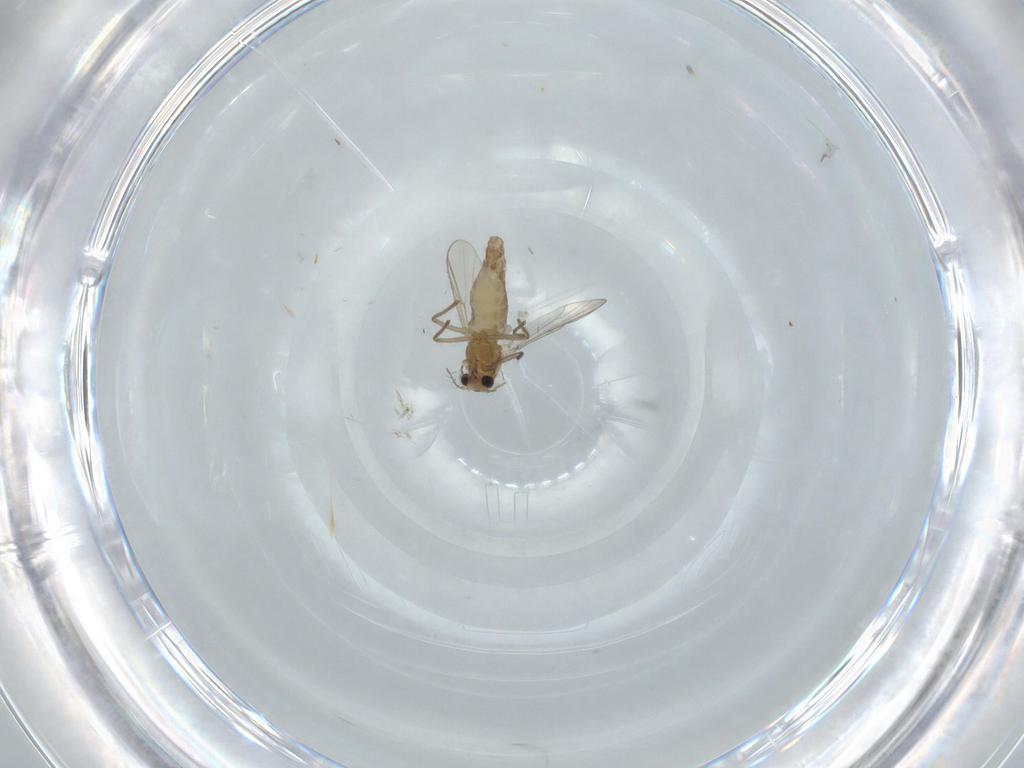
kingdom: Animalia
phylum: Arthropoda
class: Insecta
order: Diptera
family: Chironomidae
